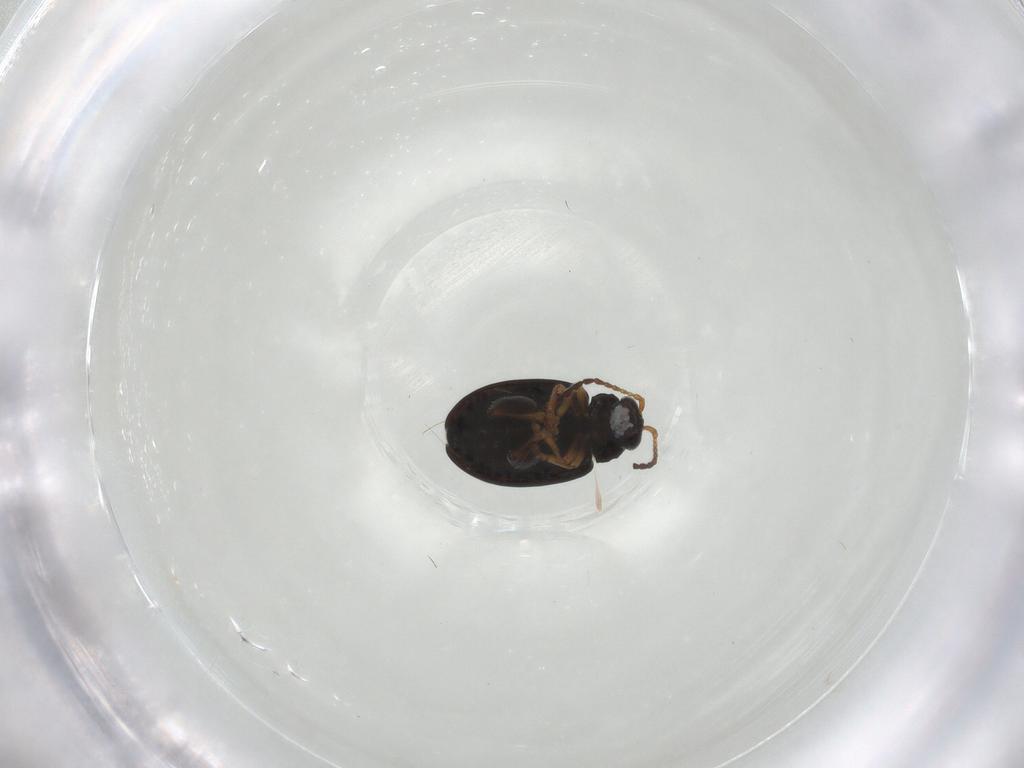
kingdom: Animalia
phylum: Arthropoda
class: Insecta
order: Coleoptera
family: Chrysomelidae
